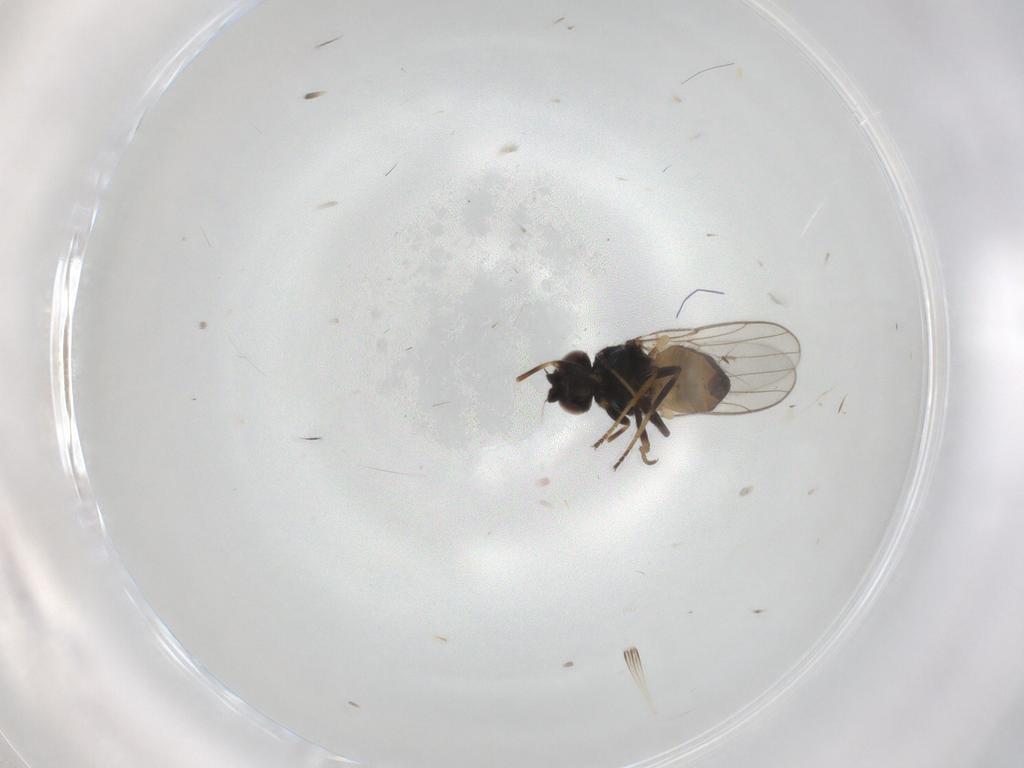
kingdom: Animalia
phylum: Arthropoda
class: Insecta
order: Diptera
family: Chloropidae
